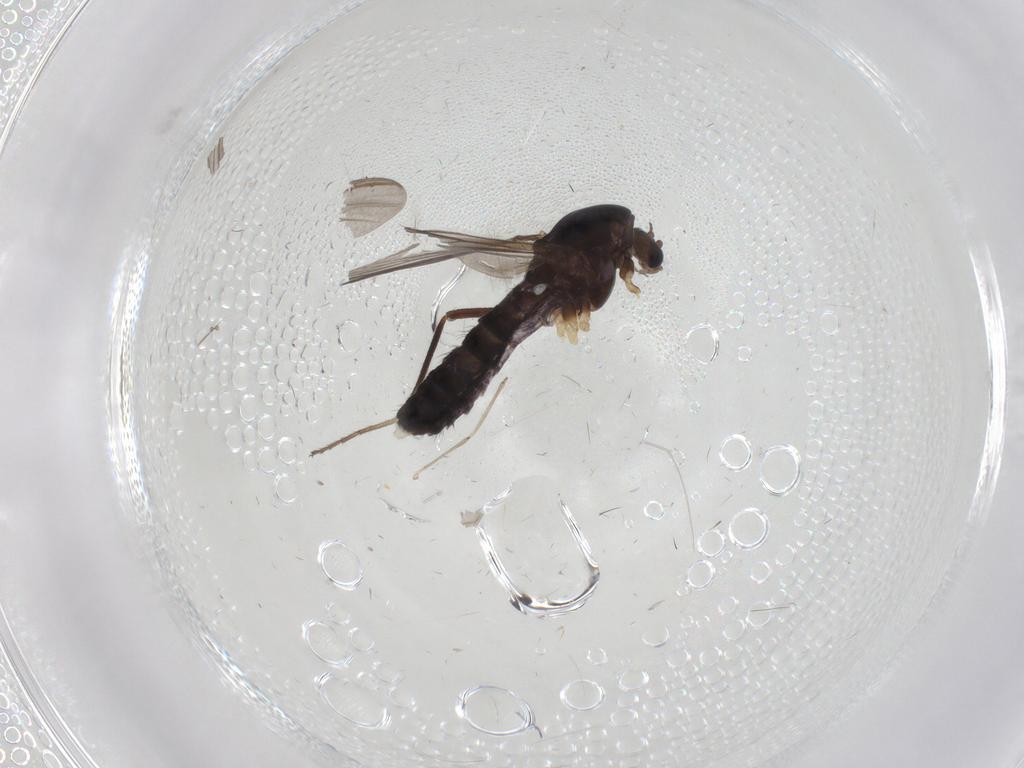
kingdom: Animalia
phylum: Arthropoda
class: Insecta
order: Diptera
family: Chironomidae
